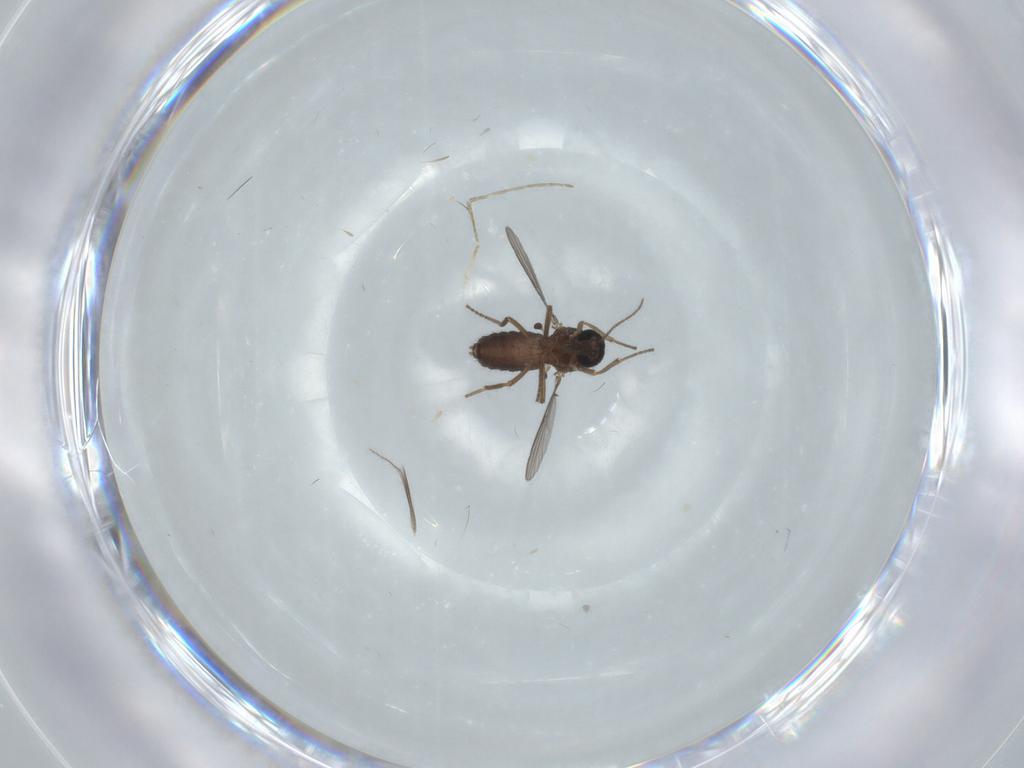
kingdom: Animalia
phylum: Arthropoda
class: Insecta
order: Diptera
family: Ceratopogonidae
